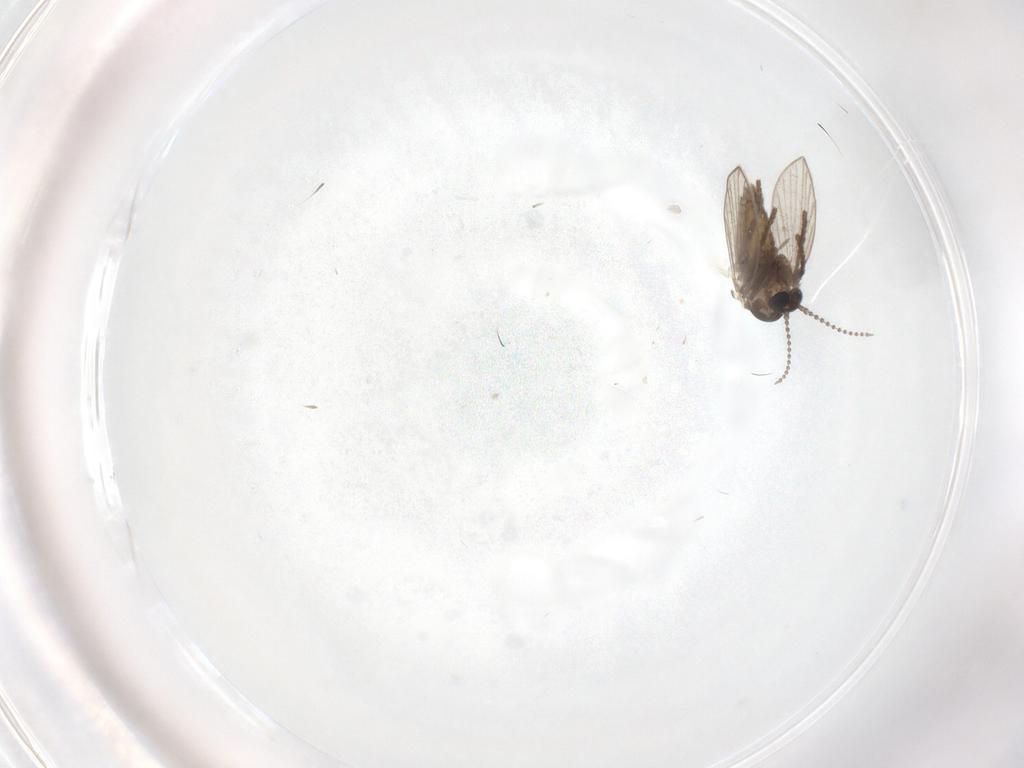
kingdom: Animalia
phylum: Arthropoda
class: Insecta
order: Diptera
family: Psychodidae
